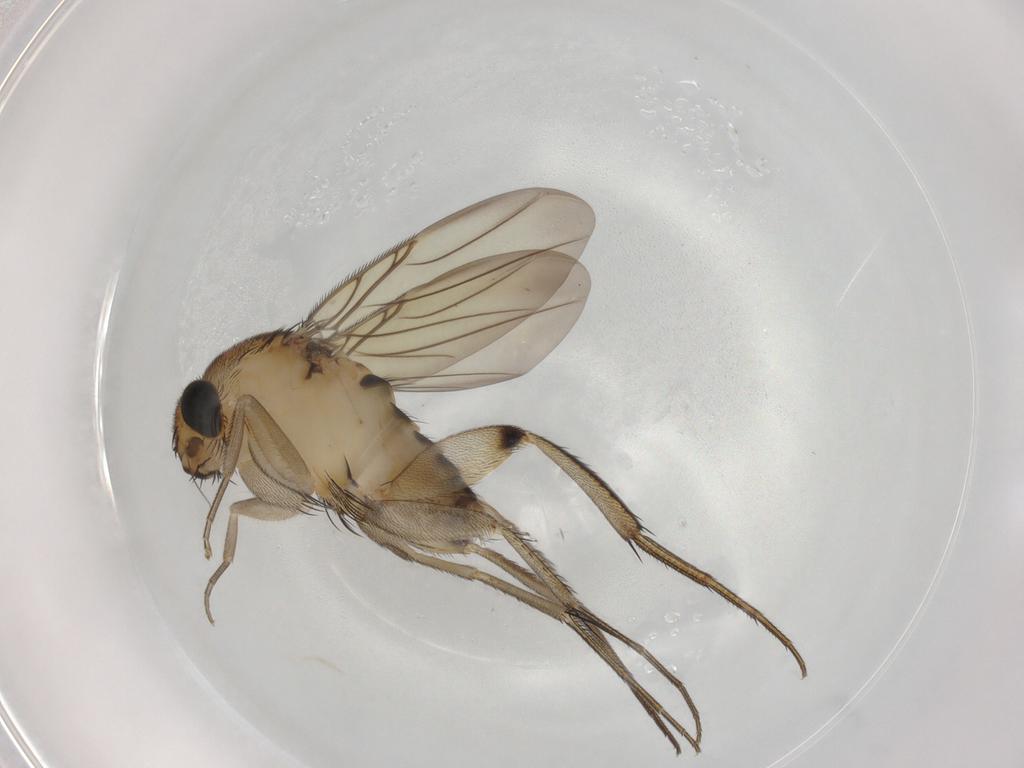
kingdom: Animalia
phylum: Arthropoda
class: Insecta
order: Diptera
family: Phoridae
